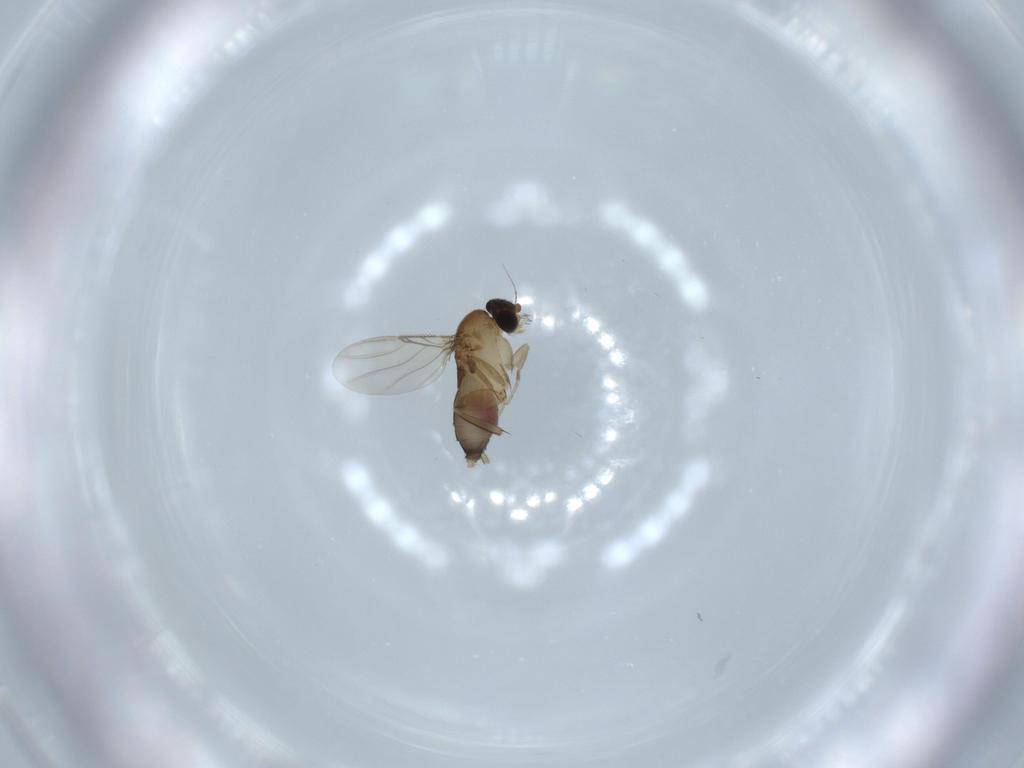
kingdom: Animalia
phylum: Arthropoda
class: Insecta
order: Diptera
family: Phoridae
